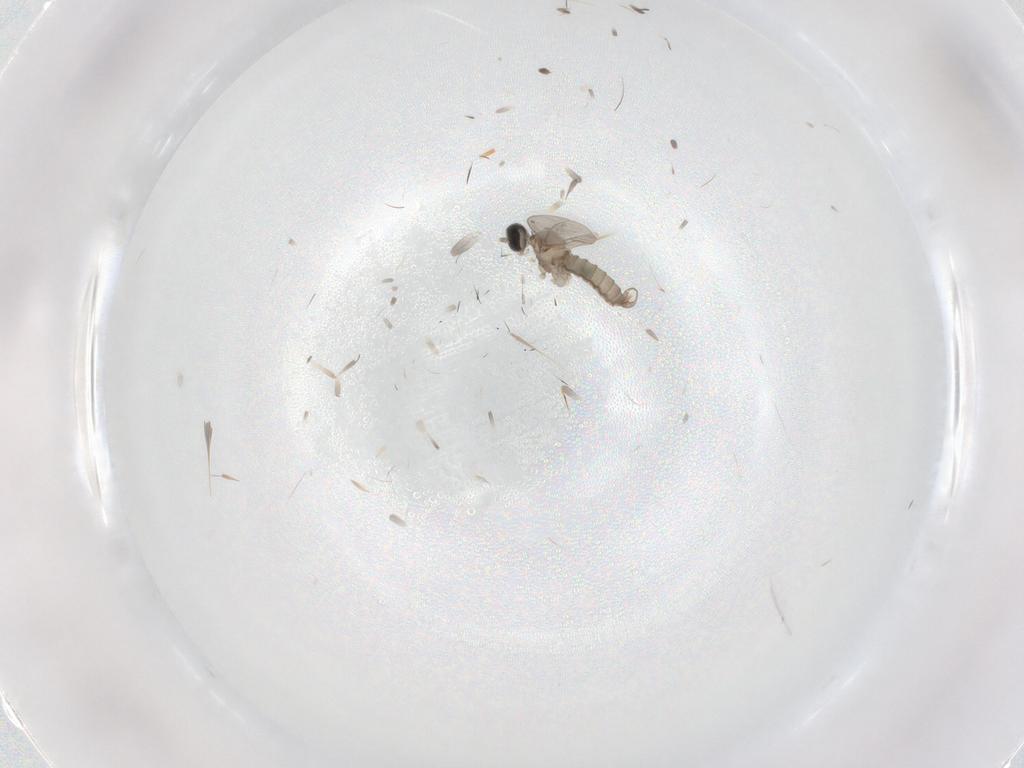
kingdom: Animalia
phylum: Arthropoda
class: Insecta
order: Diptera
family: Cecidomyiidae
